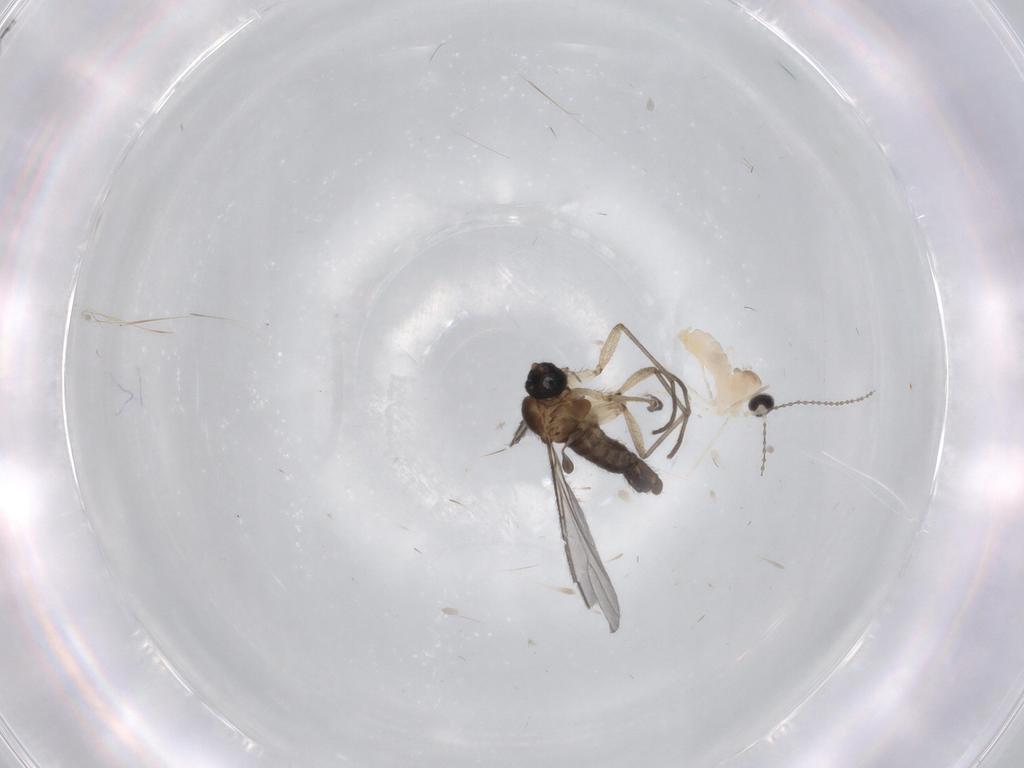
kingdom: Animalia
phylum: Arthropoda
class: Insecta
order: Diptera
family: Sciaridae
